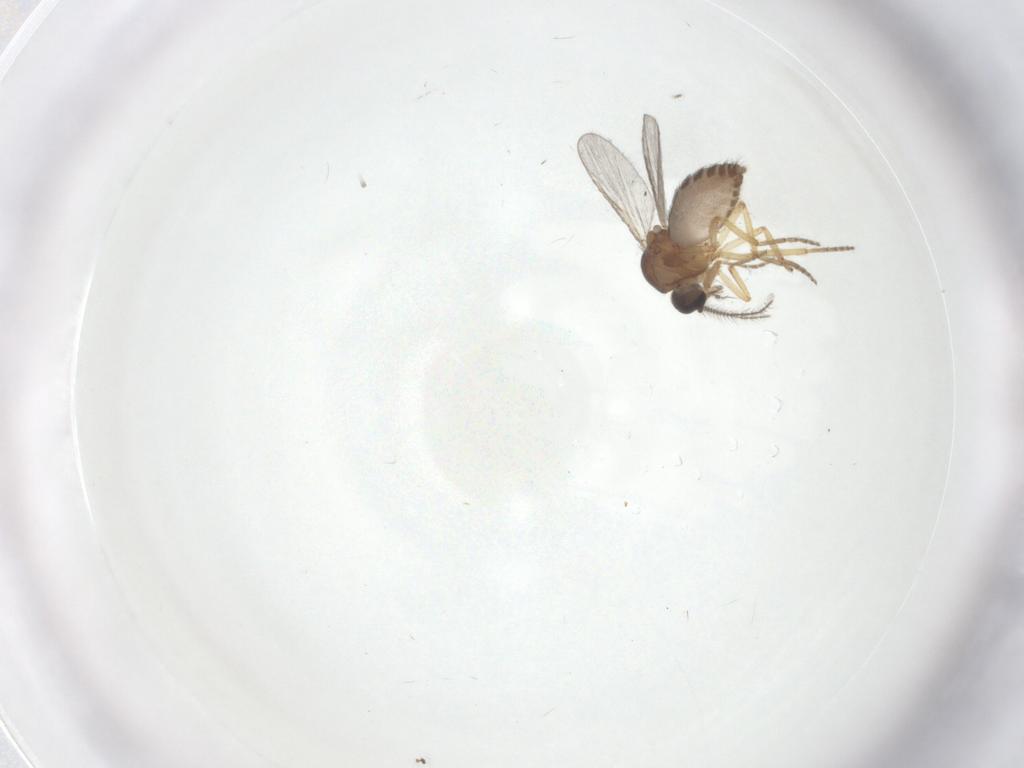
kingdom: Animalia
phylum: Arthropoda
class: Insecta
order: Diptera
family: Ceratopogonidae
